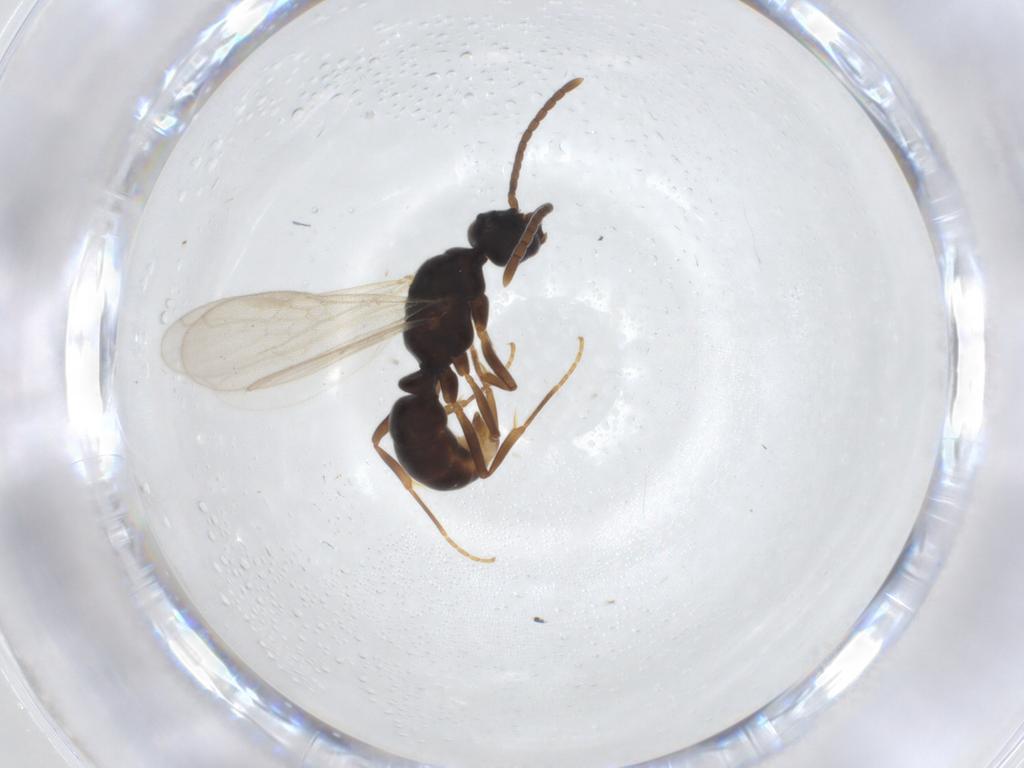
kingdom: Animalia
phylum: Arthropoda
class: Insecta
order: Hymenoptera
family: Formicidae
